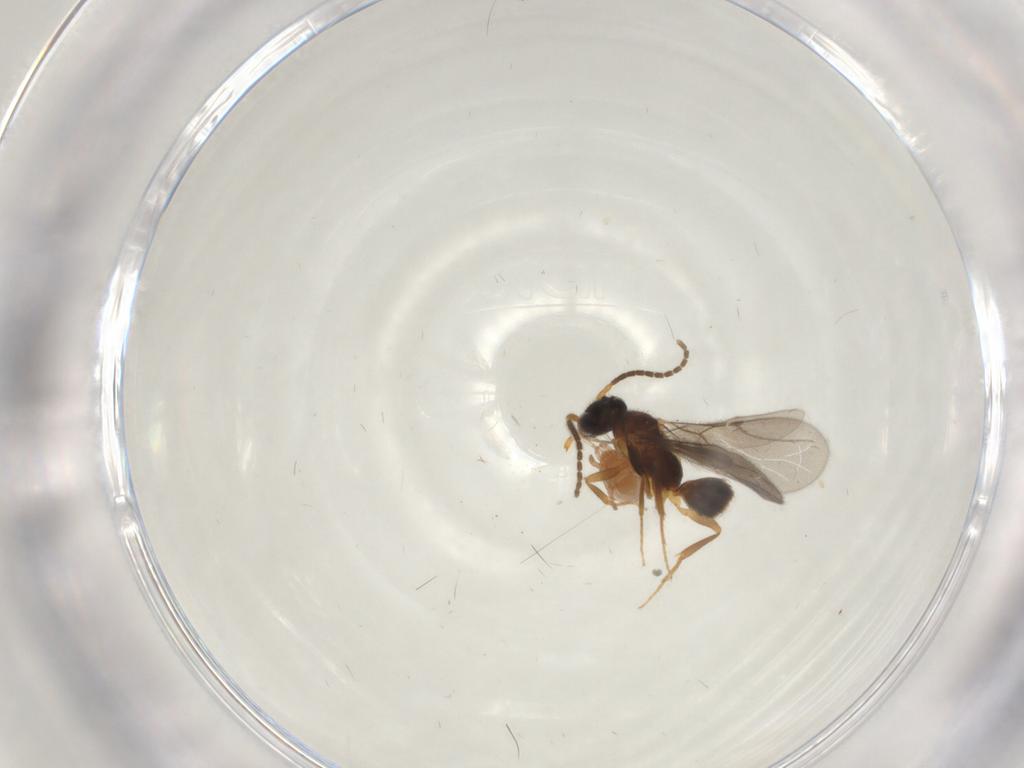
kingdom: Animalia
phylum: Arthropoda
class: Insecta
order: Hymenoptera
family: Bethylidae
